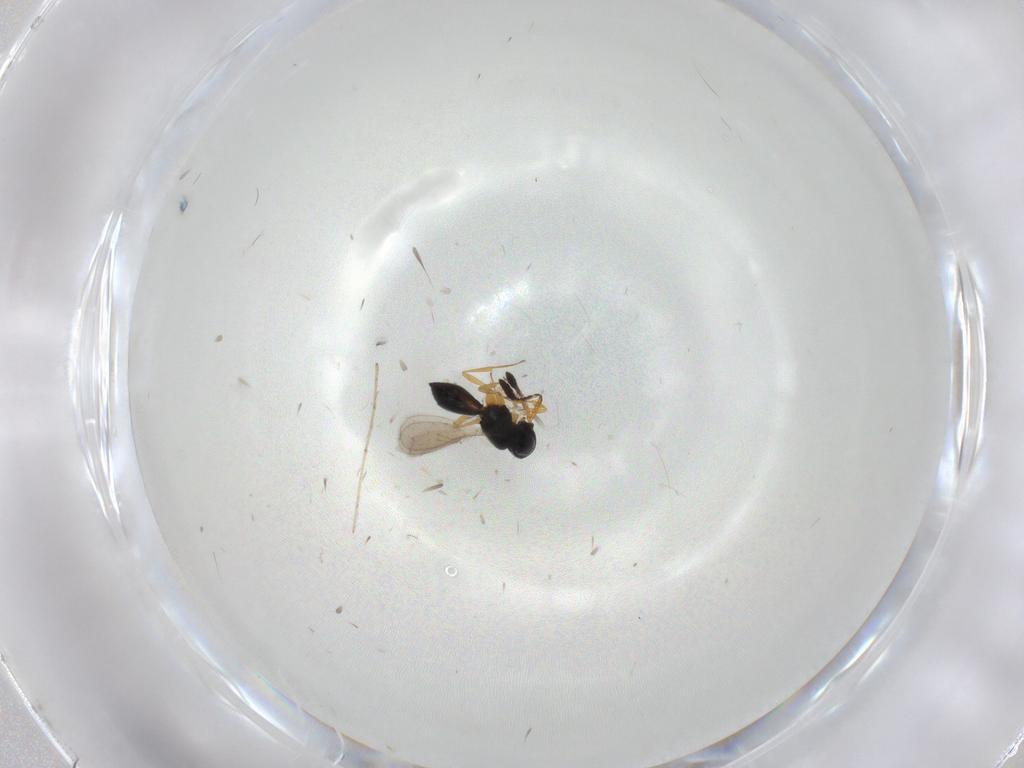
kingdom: Animalia
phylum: Arthropoda
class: Insecta
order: Hymenoptera
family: Scelionidae
